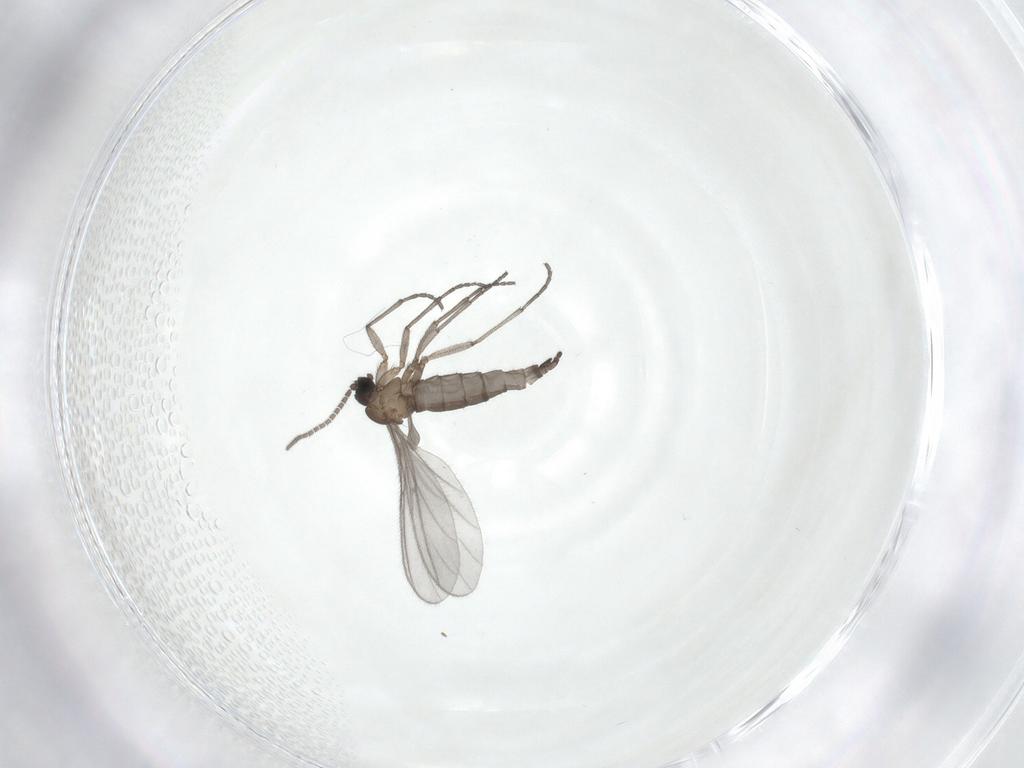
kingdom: Animalia
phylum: Arthropoda
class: Insecta
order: Diptera
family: Sciaridae
